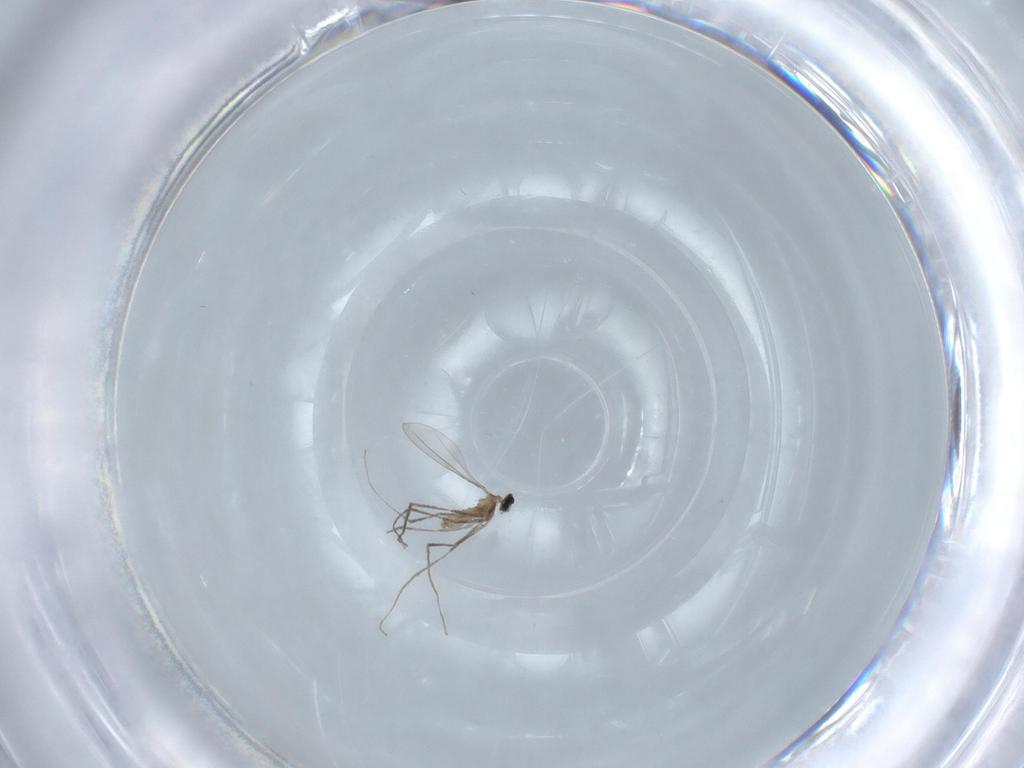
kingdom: Animalia
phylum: Arthropoda
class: Insecta
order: Diptera
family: Cecidomyiidae
